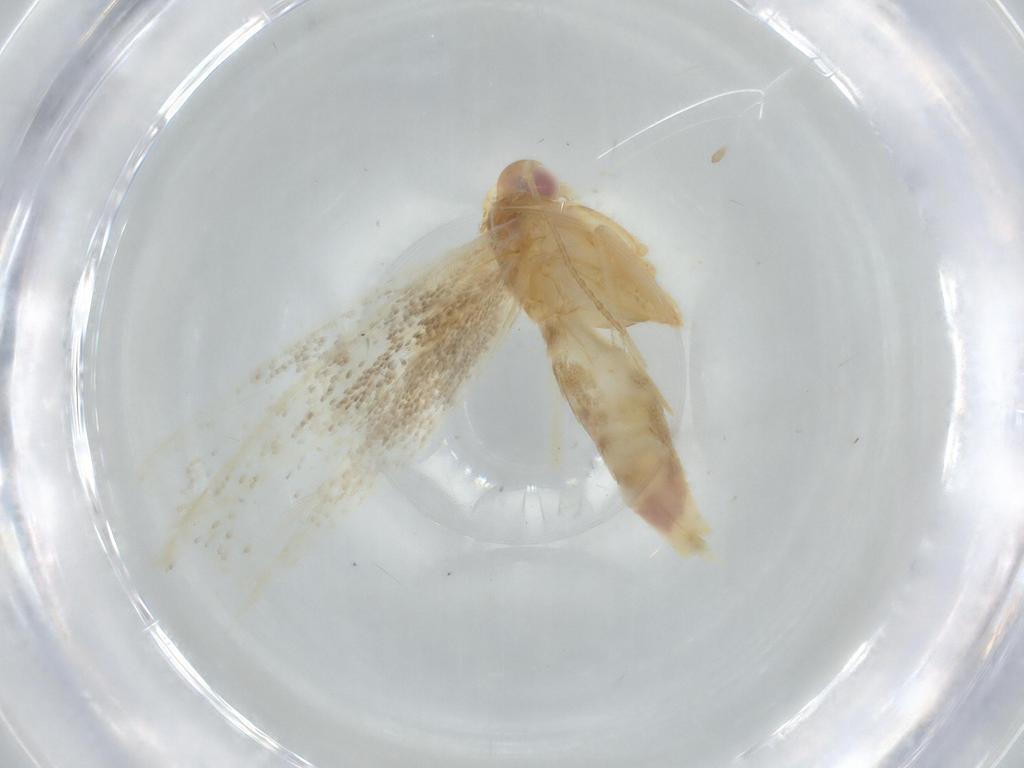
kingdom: Animalia
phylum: Arthropoda
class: Insecta
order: Lepidoptera
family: Cosmopterigidae
